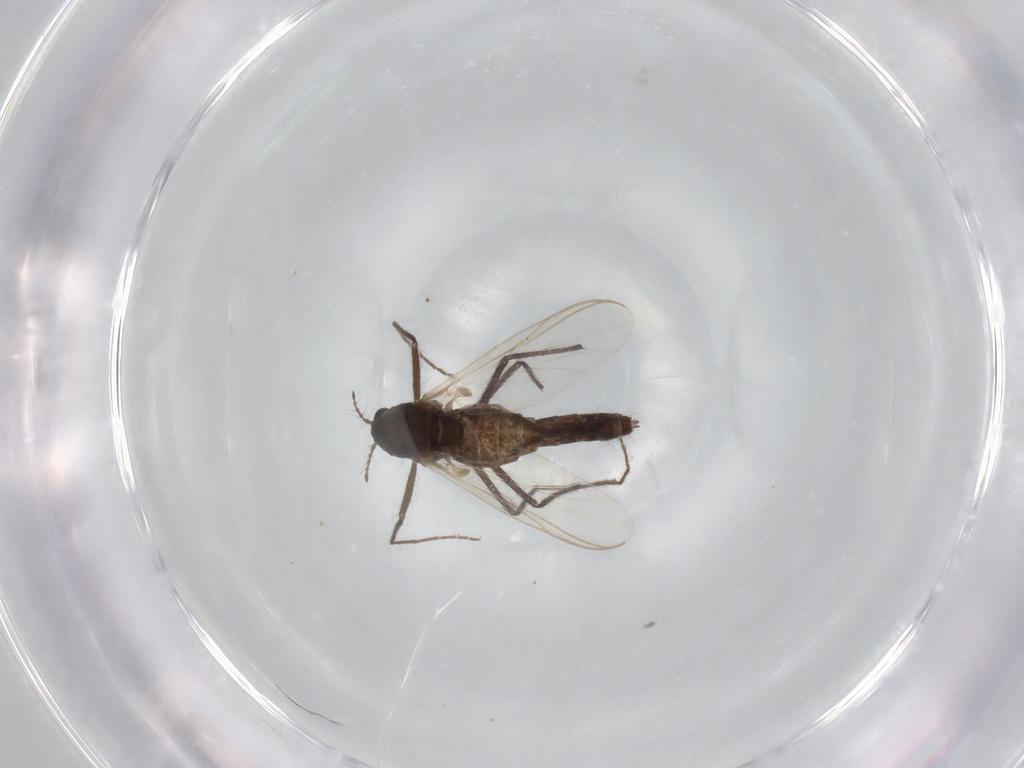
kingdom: Animalia
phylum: Arthropoda
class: Insecta
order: Diptera
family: Chironomidae
